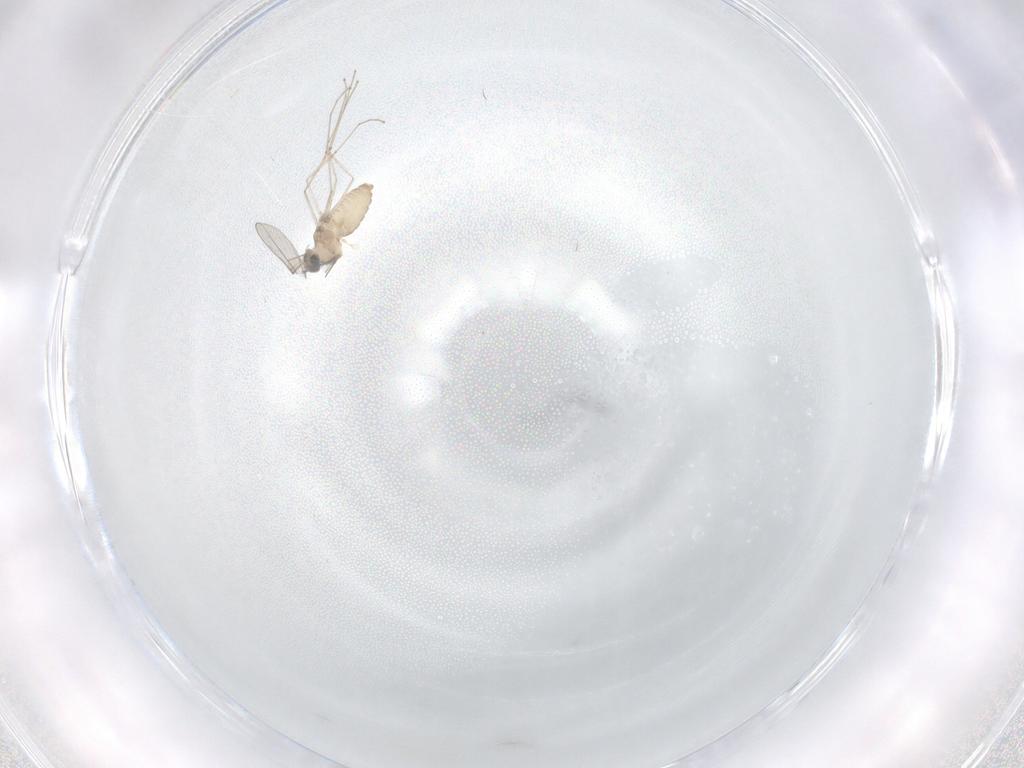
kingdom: Animalia
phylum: Arthropoda
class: Insecta
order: Diptera
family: Cecidomyiidae
